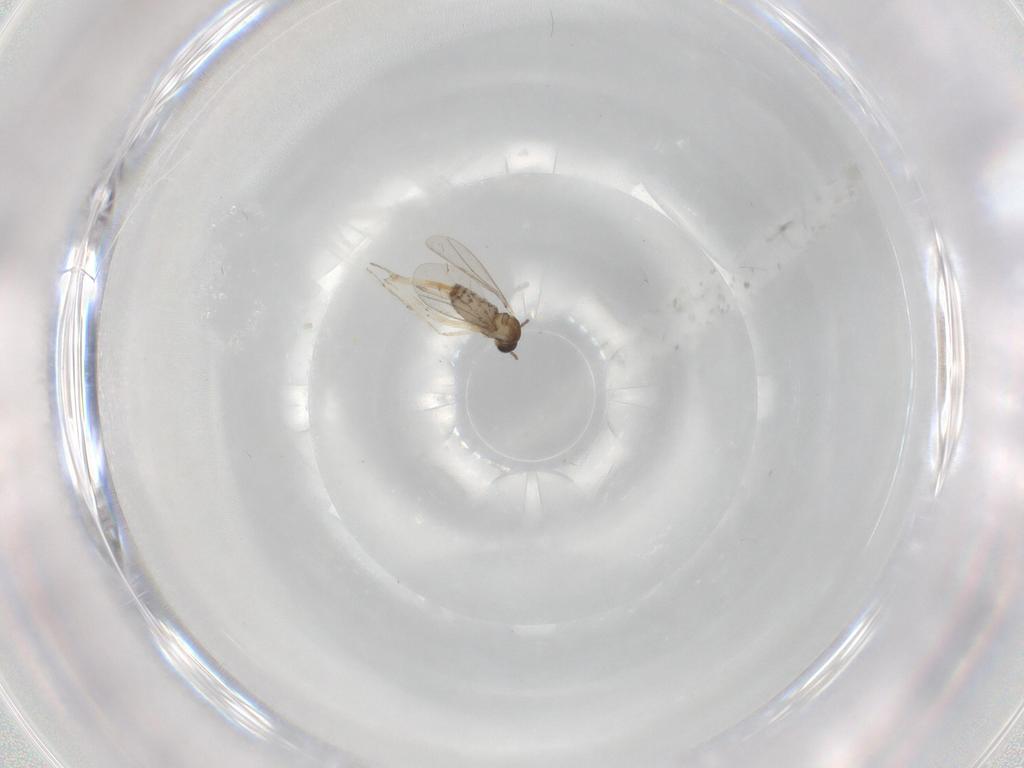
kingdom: Animalia
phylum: Arthropoda
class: Insecta
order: Diptera
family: Cecidomyiidae
